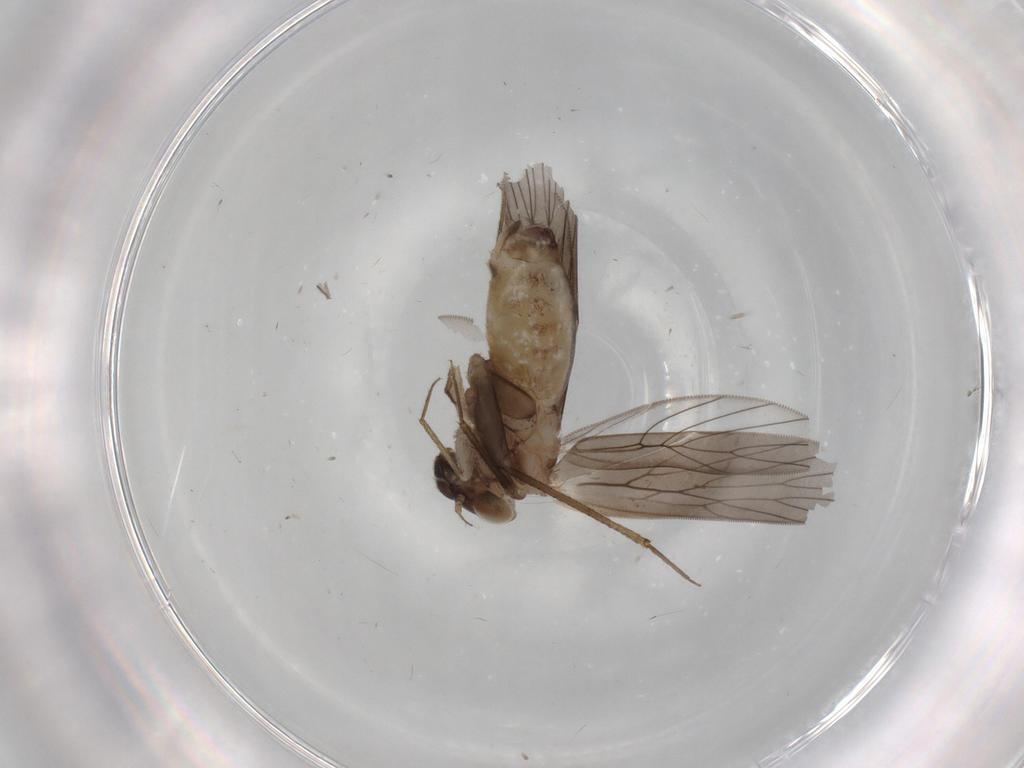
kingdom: Animalia
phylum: Arthropoda
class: Insecta
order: Psocodea
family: Lepidopsocidae
